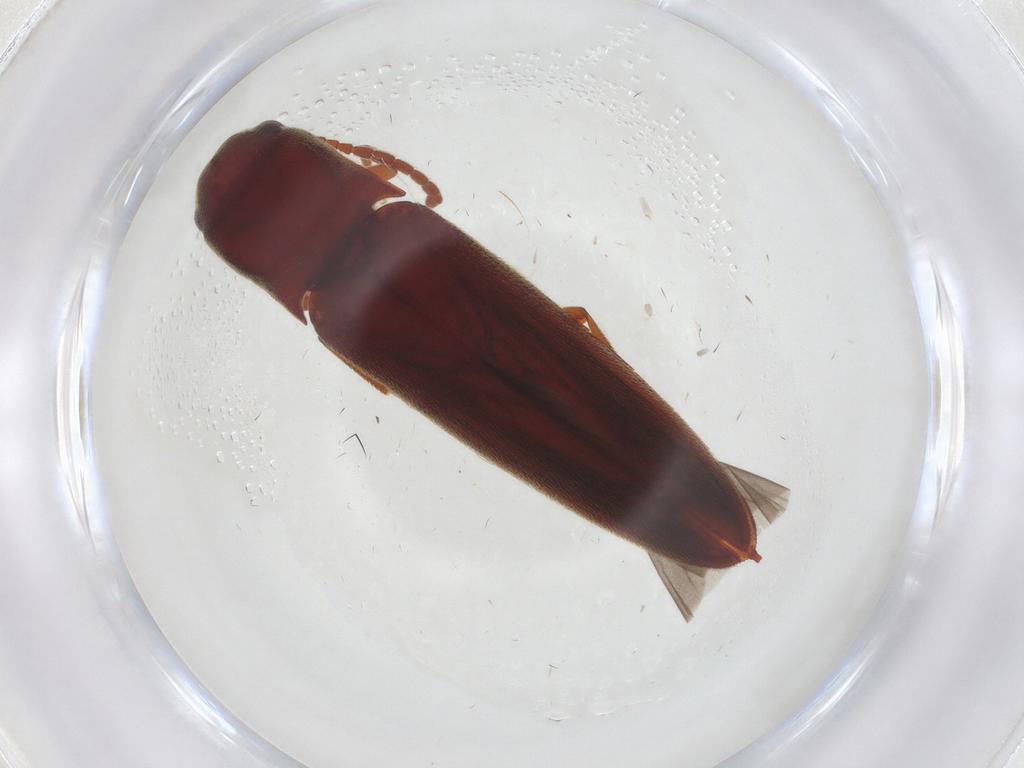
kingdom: Animalia
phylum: Arthropoda
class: Insecta
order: Coleoptera
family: Eucnemidae
